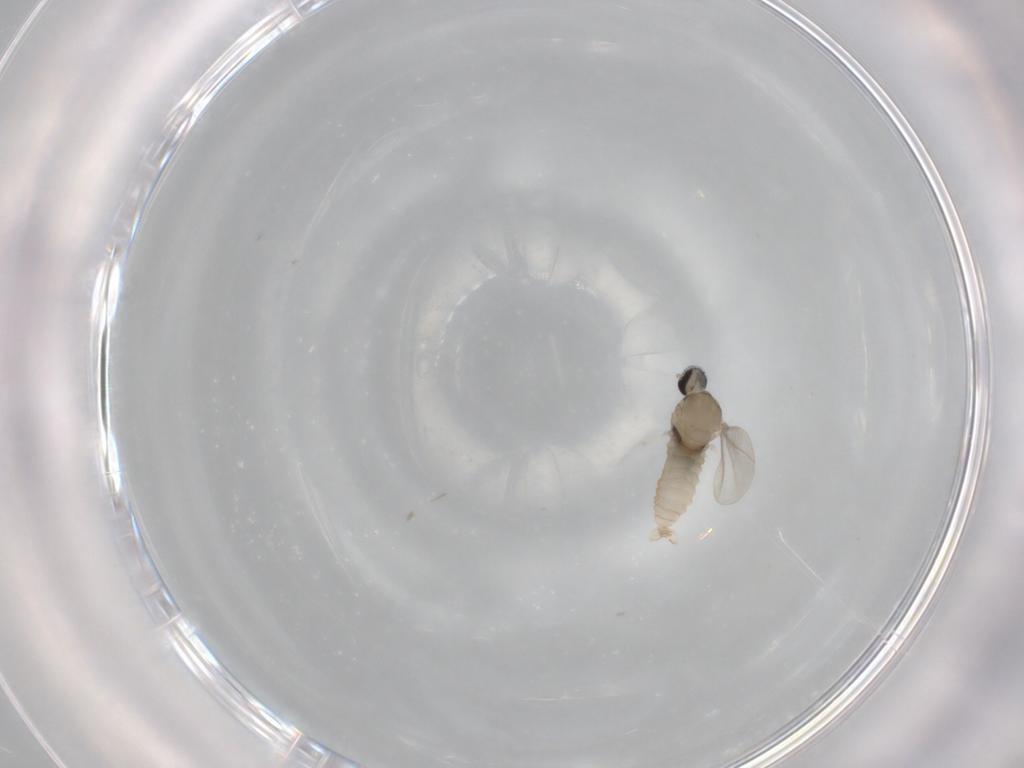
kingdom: Animalia
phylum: Arthropoda
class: Insecta
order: Diptera
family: Cecidomyiidae
